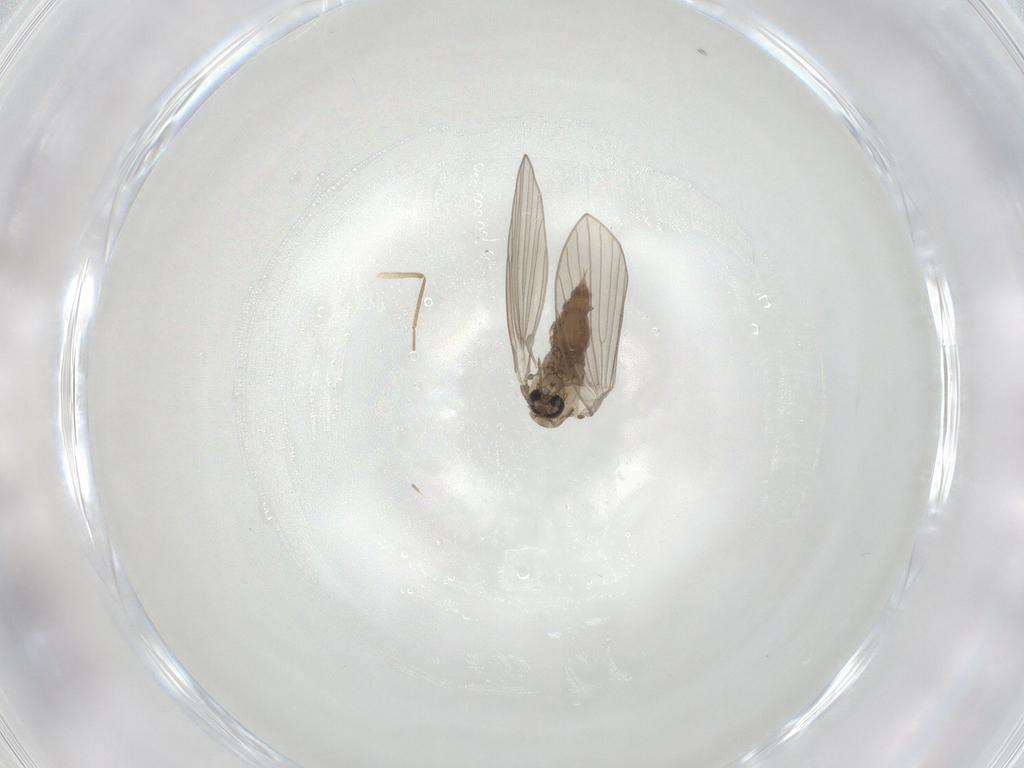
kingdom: Animalia
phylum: Arthropoda
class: Insecta
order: Diptera
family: Psychodidae
